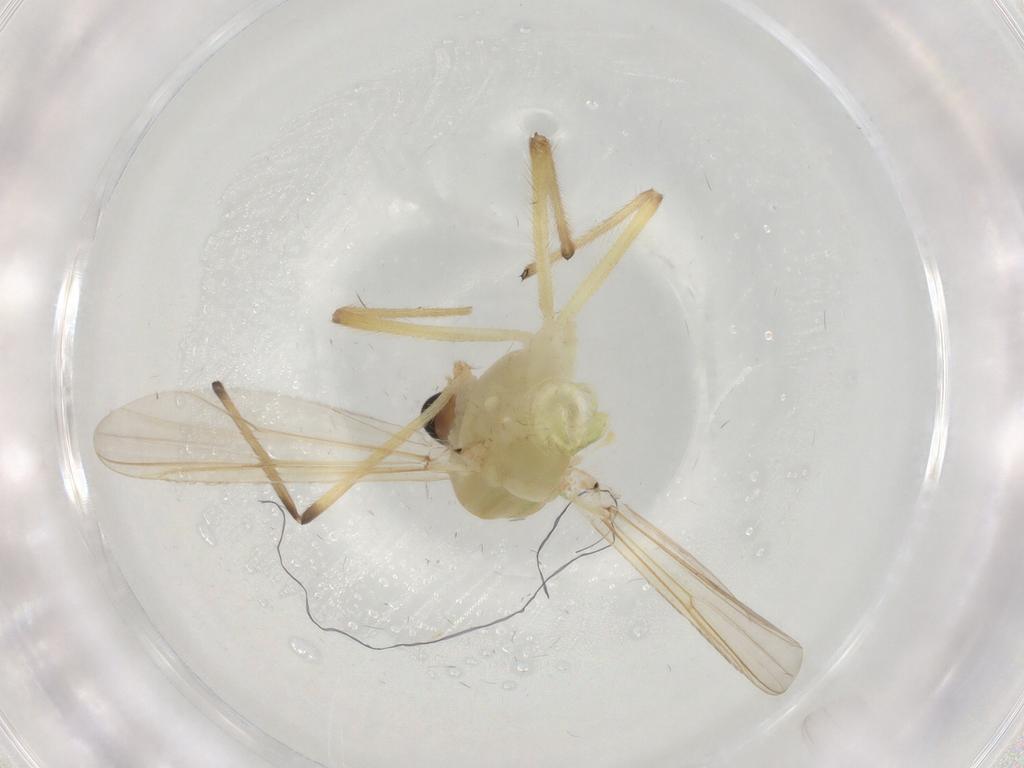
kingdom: Animalia
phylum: Arthropoda
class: Insecta
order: Diptera
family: Cecidomyiidae
